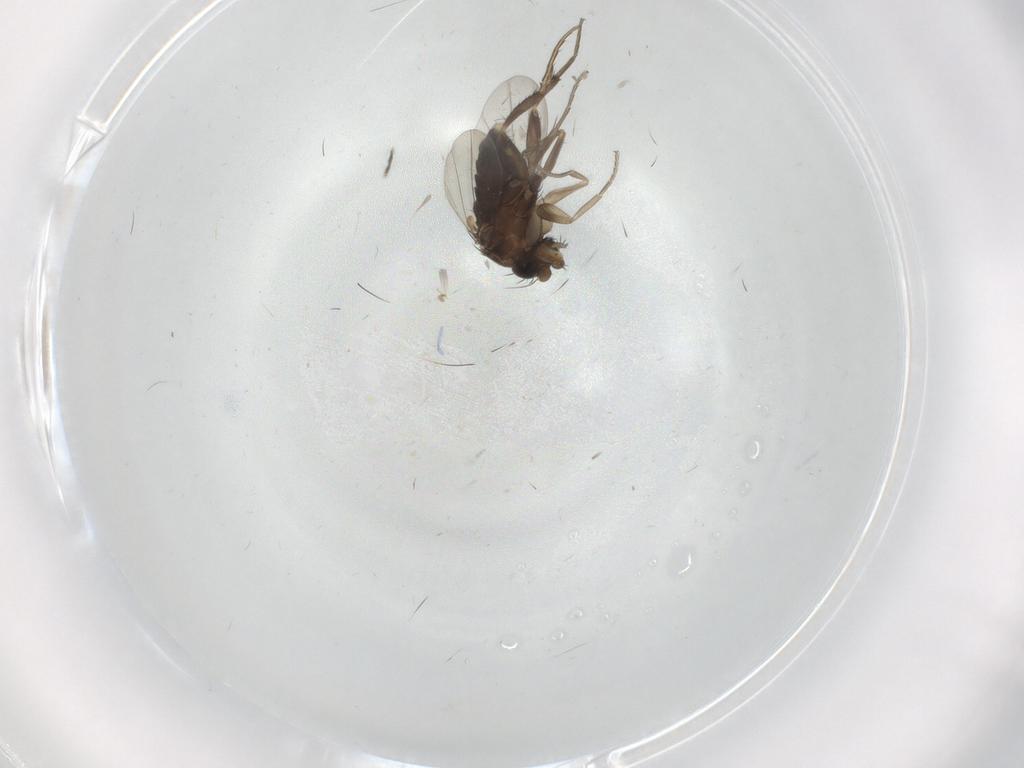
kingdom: Animalia
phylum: Arthropoda
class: Insecta
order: Diptera
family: Phoridae
